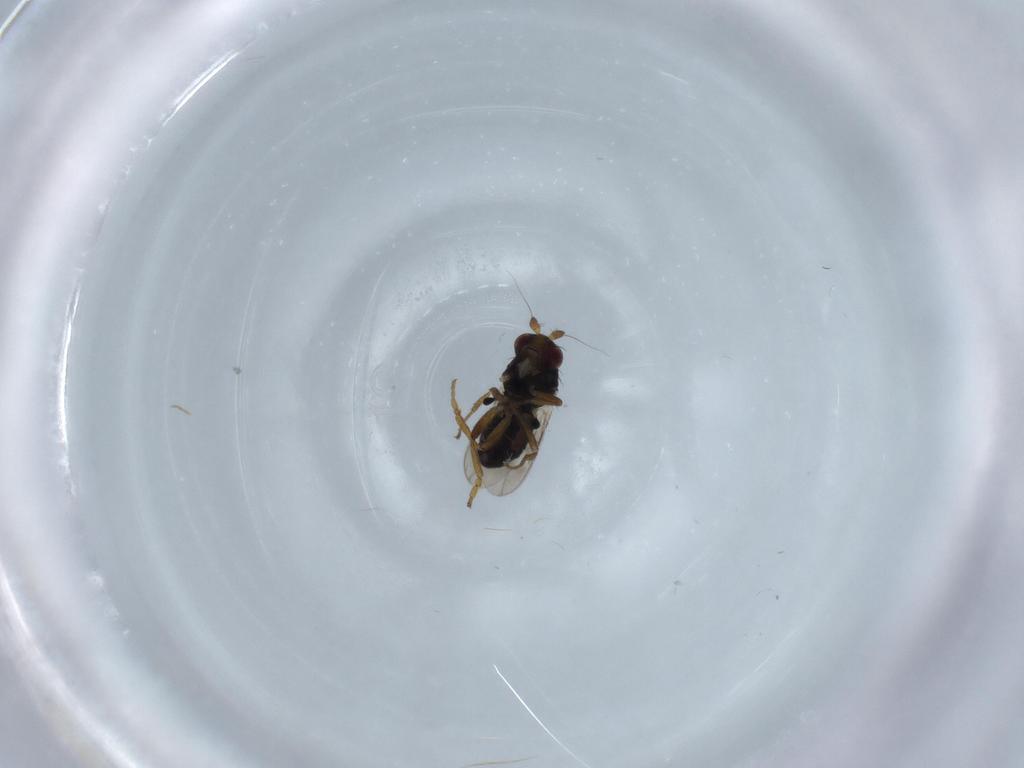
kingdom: Animalia
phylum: Arthropoda
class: Insecta
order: Diptera
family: Sphaeroceridae
